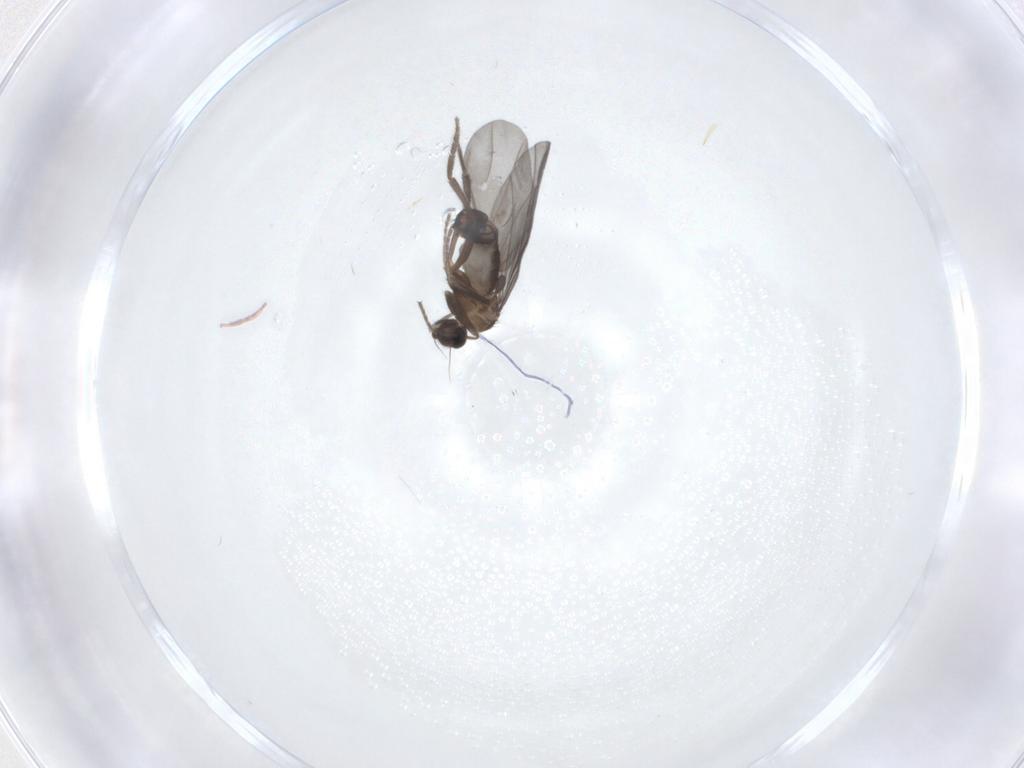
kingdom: Animalia
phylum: Arthropoda
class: Insecta
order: Diptera
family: Phoridae
